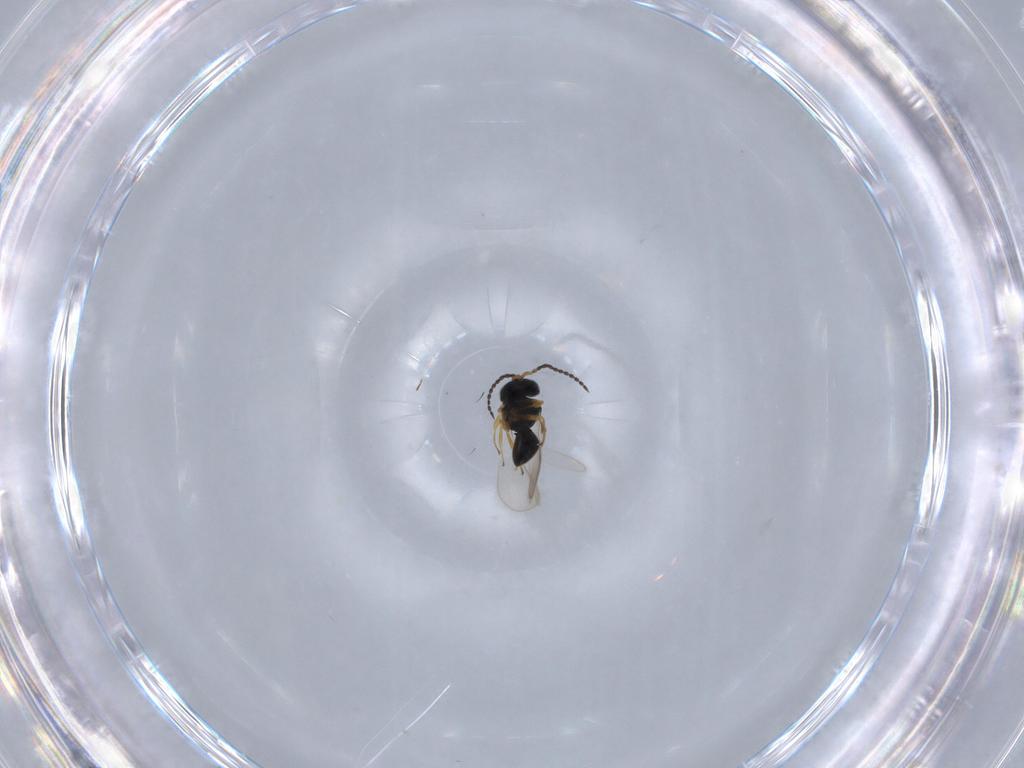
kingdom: Animalia
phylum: Arthropoda
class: Insecta
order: Hymenoptera
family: Scelionidae
